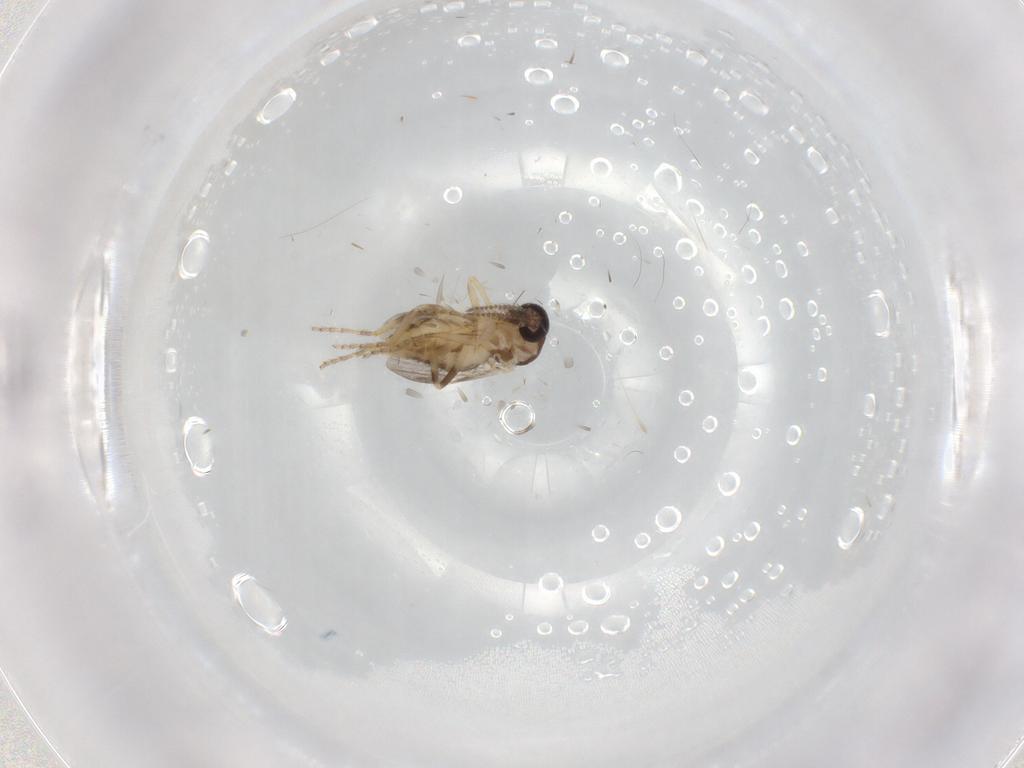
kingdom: Animalia
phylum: Arthropoda
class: Insecta
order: Diptera
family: Ceratopogonidae
